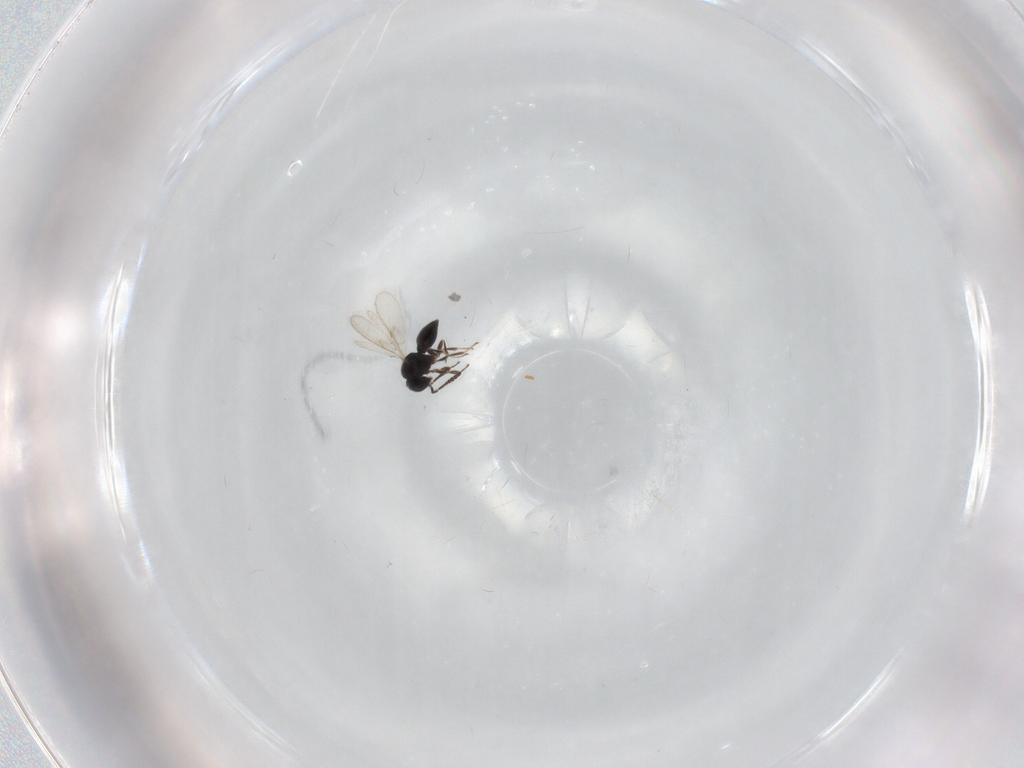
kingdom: Animalia
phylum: Arthropoda
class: Insecta
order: Hymenoptera
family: Scelionidae
